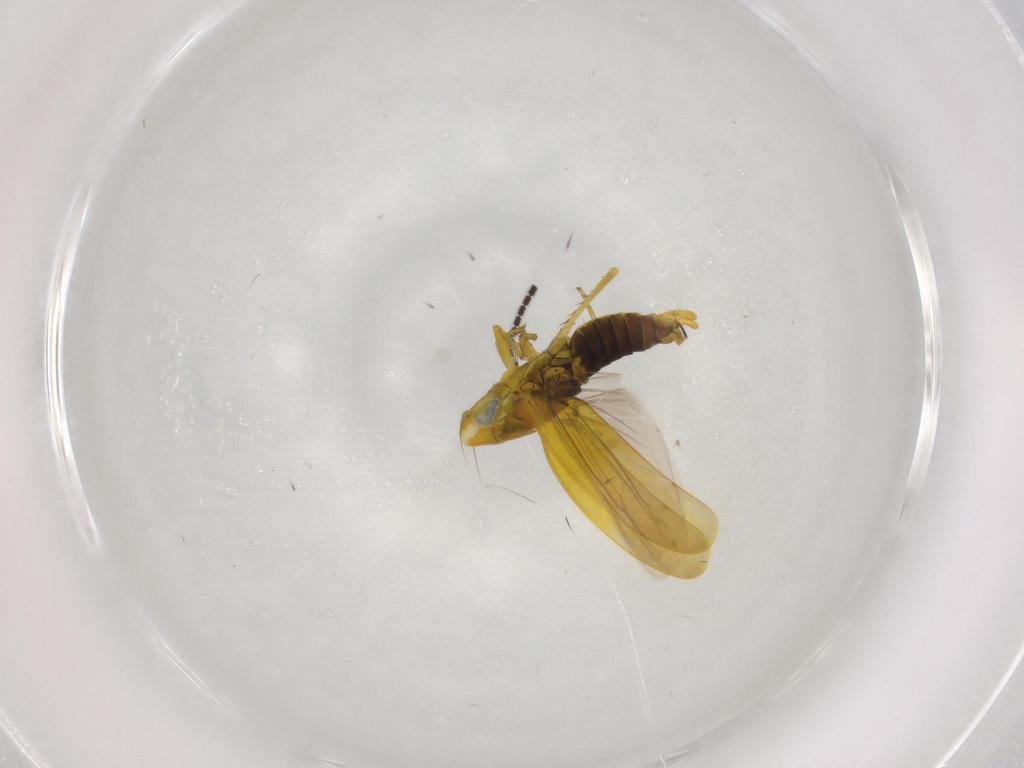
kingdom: Animalia
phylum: Arthropoda
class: Insecta
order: Hemiptera
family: Cicadellidae
